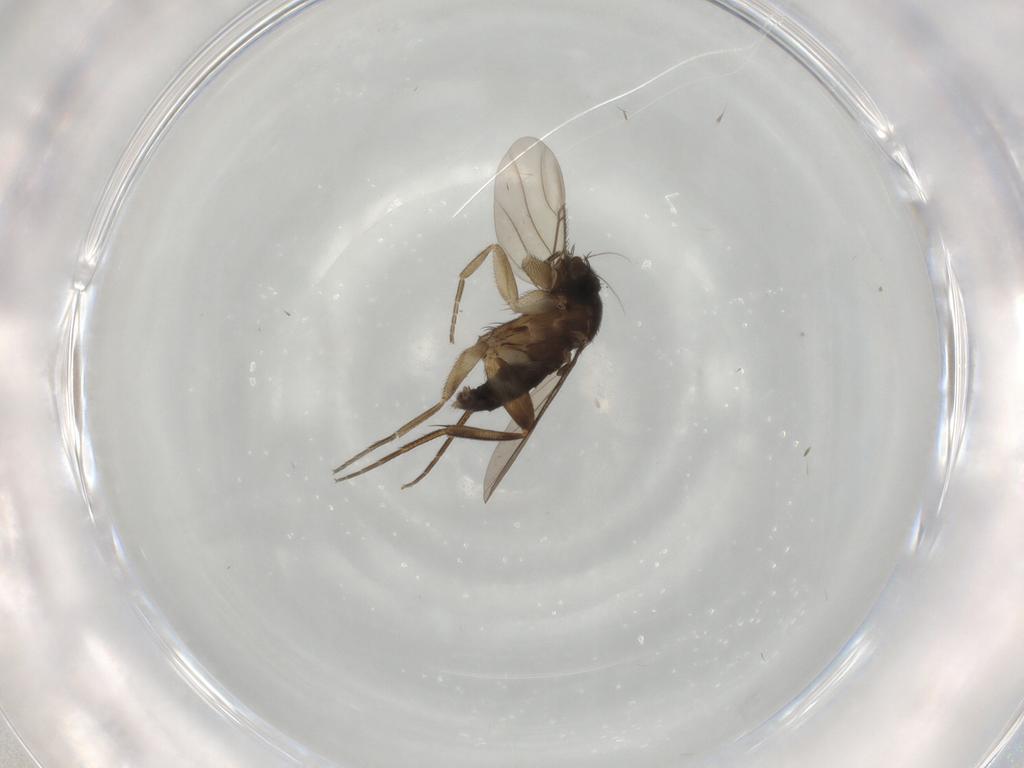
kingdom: Animalia
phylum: Arthropoda
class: Insecta
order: Diptera
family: Phoridae
